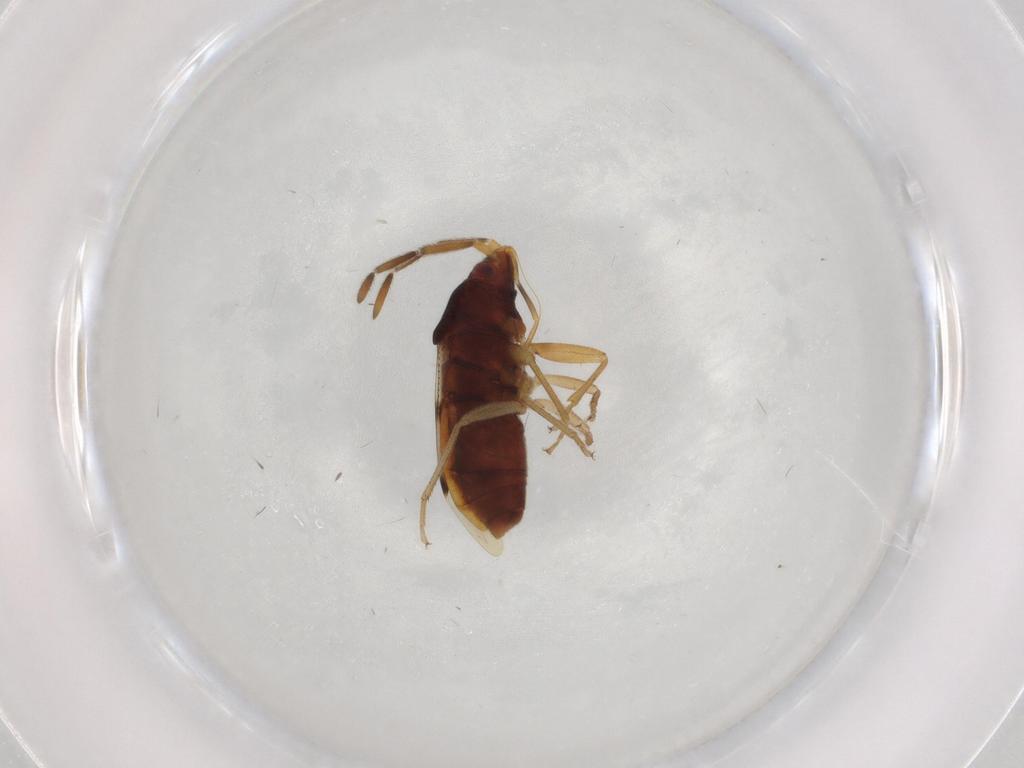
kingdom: Animalia
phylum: Arthropoda
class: Insecta
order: Hemiptera
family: Rhyparochromidae
